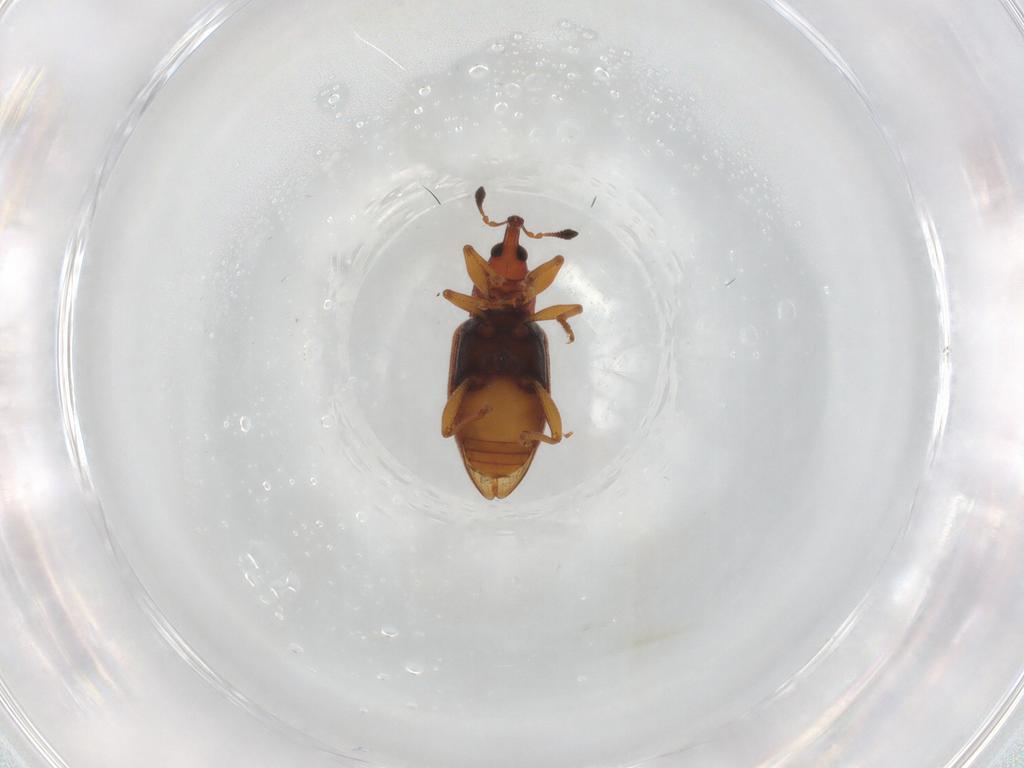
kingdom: Animalia
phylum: Arthropoda
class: Insecta
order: Coleoptera
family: Curculionidae
